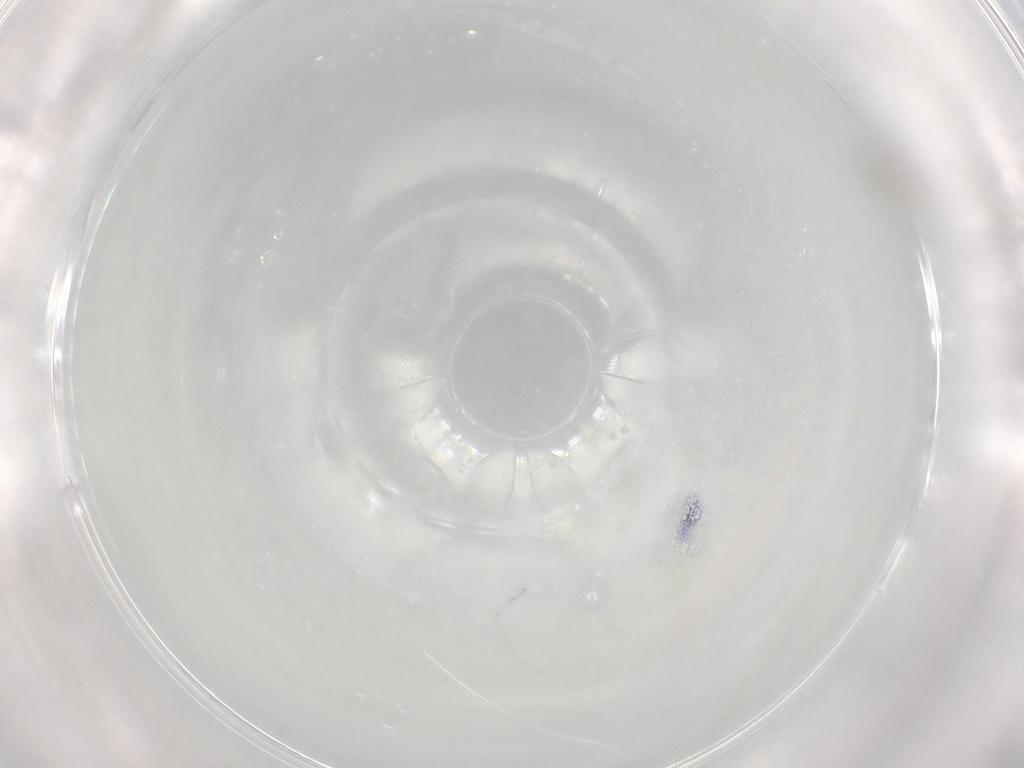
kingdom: Animalia
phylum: Arthropoda
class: Insecta
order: Diptera
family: Cecidomyiidae
